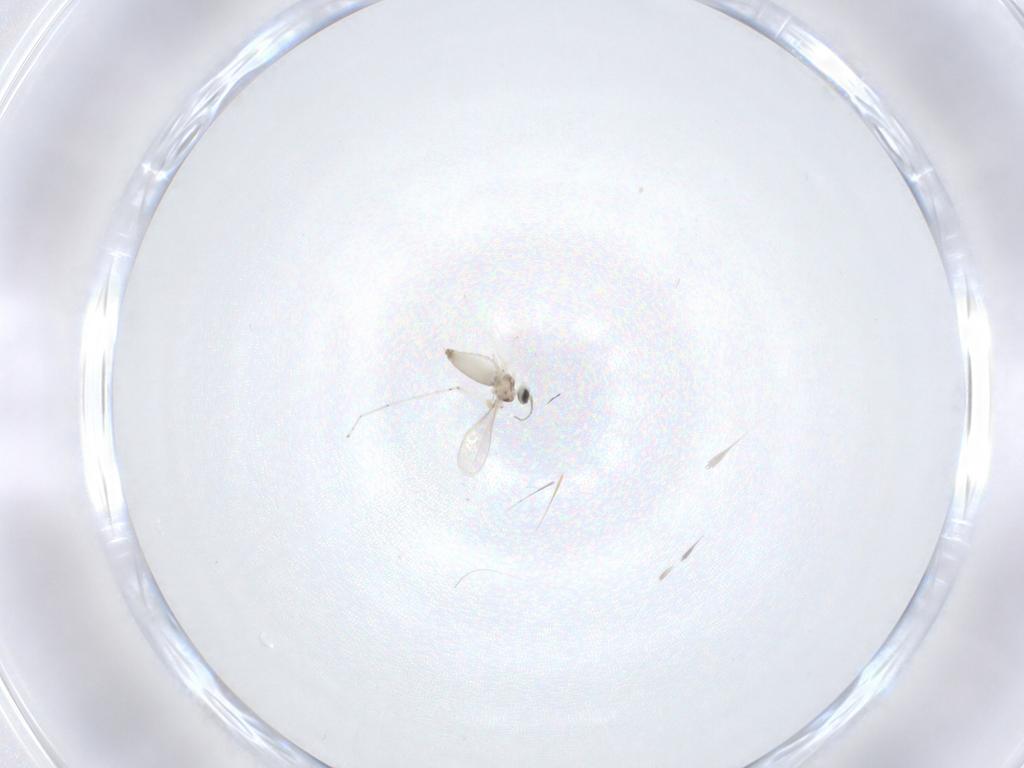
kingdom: Animalia
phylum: Arthropoda
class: Insecta
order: Diptera
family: Cecidomyiidae
